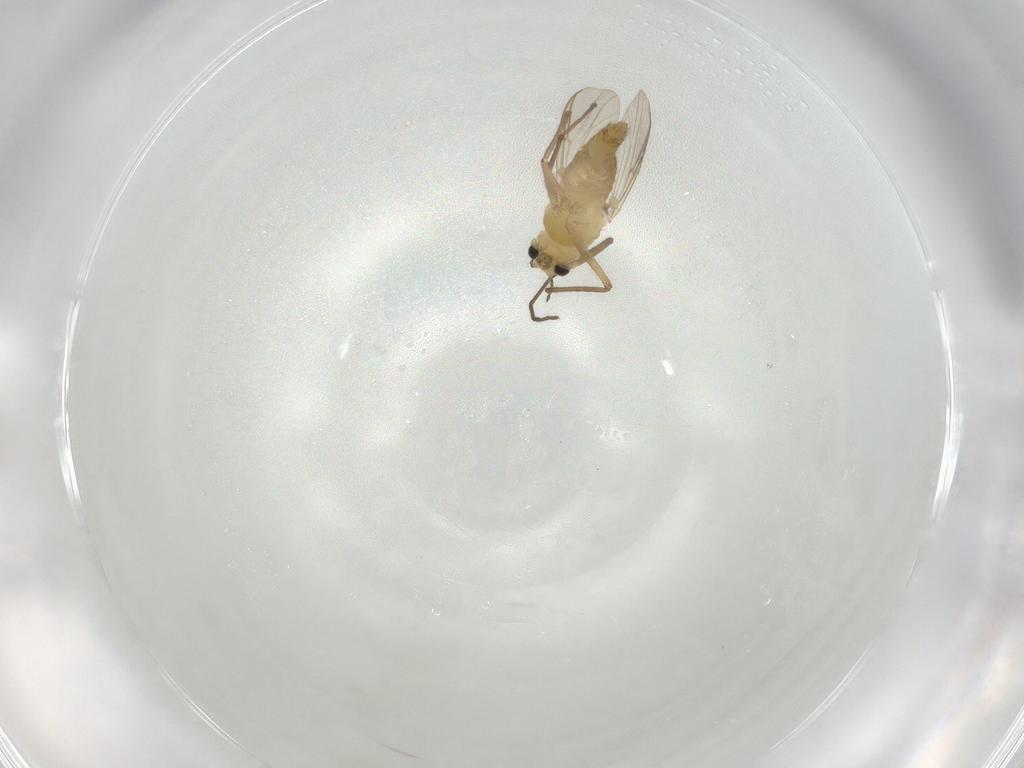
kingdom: Animalia
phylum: Arthropoda
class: Insecta
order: Diptera
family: Chironomidae
